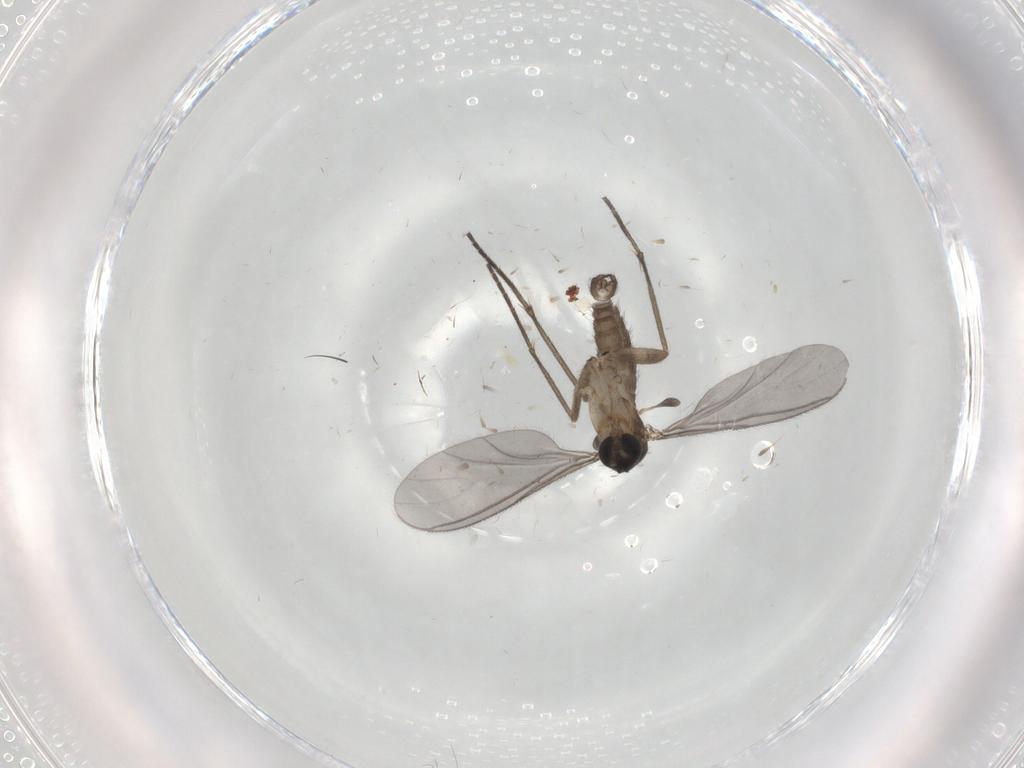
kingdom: Animalia
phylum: Arthropoda
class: Insecta
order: Diptera
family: Sciaridae
